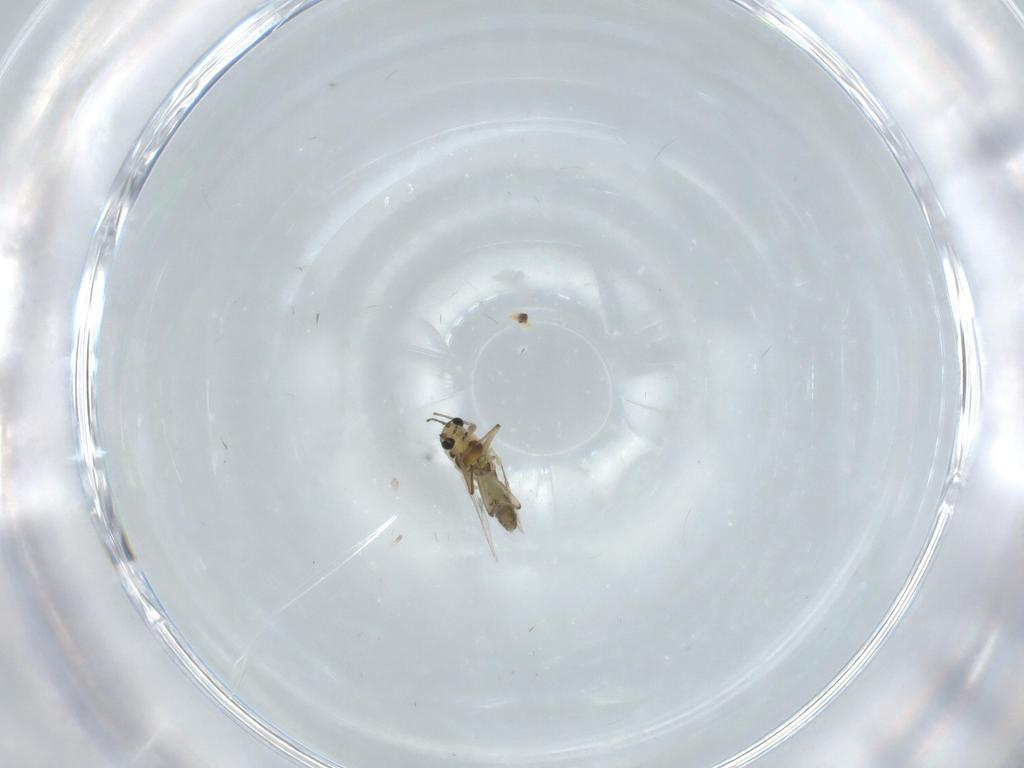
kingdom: Animalia
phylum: Arthropoda
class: Insecta
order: Diptera
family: Chironomidae
